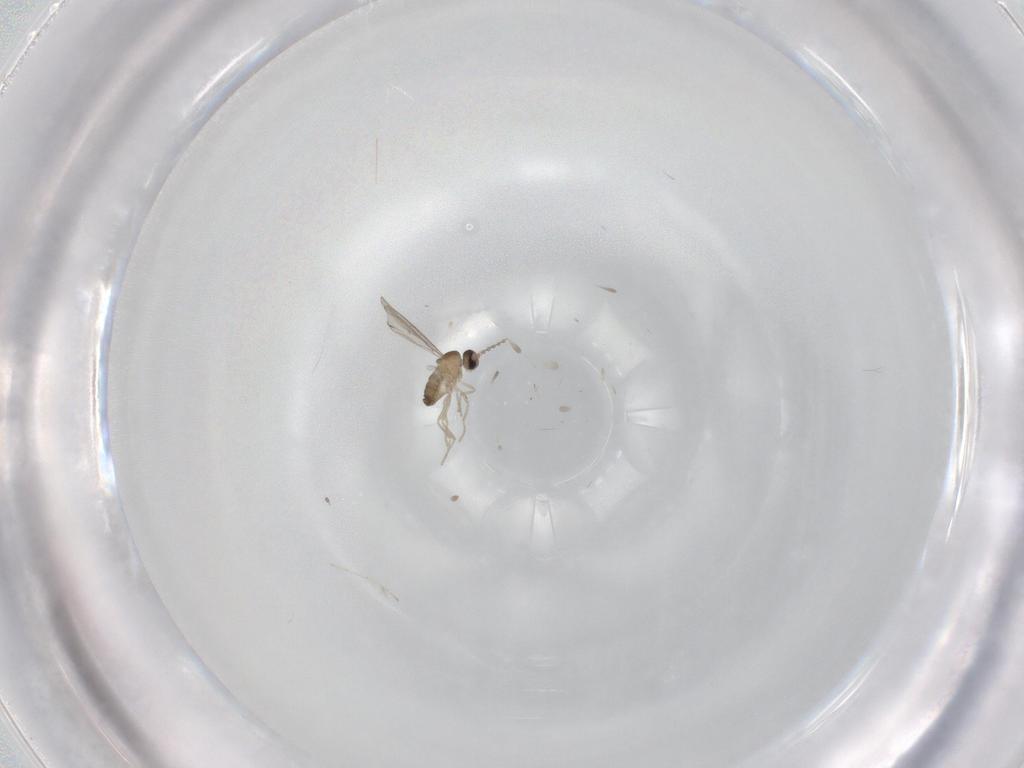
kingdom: Animalia
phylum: Arthropoda
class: Insecta
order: Diptera
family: Cecidomyiidae
